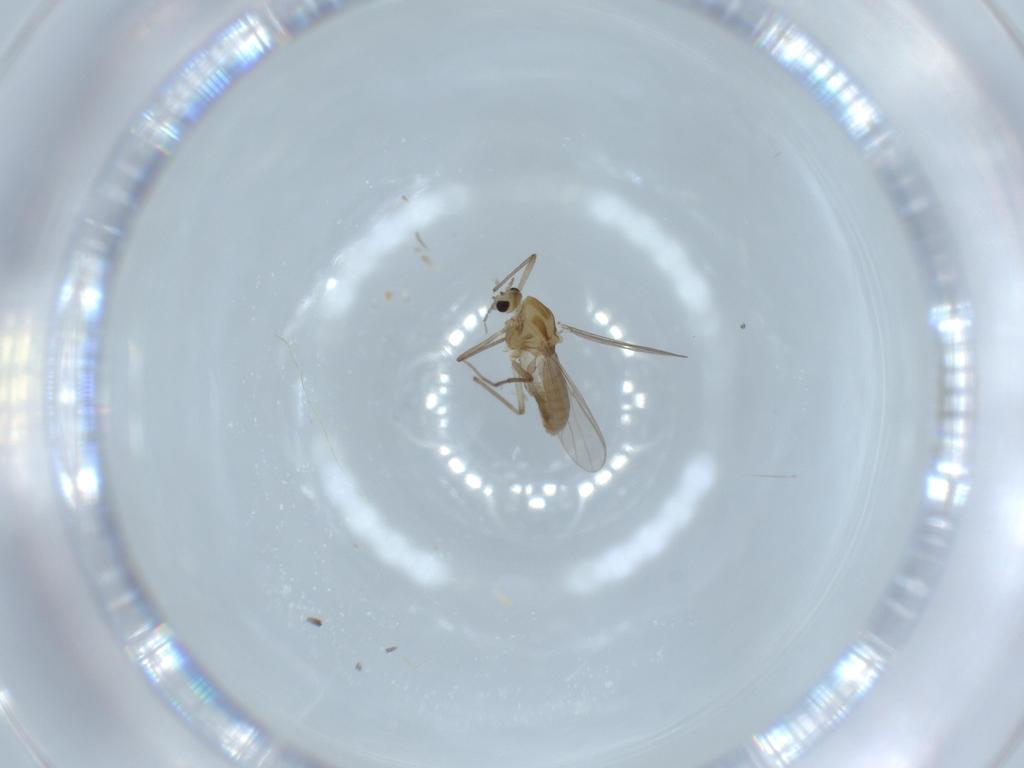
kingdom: Animalia
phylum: Arthropoda
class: Insecta
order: Diptera
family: Chironomidae
